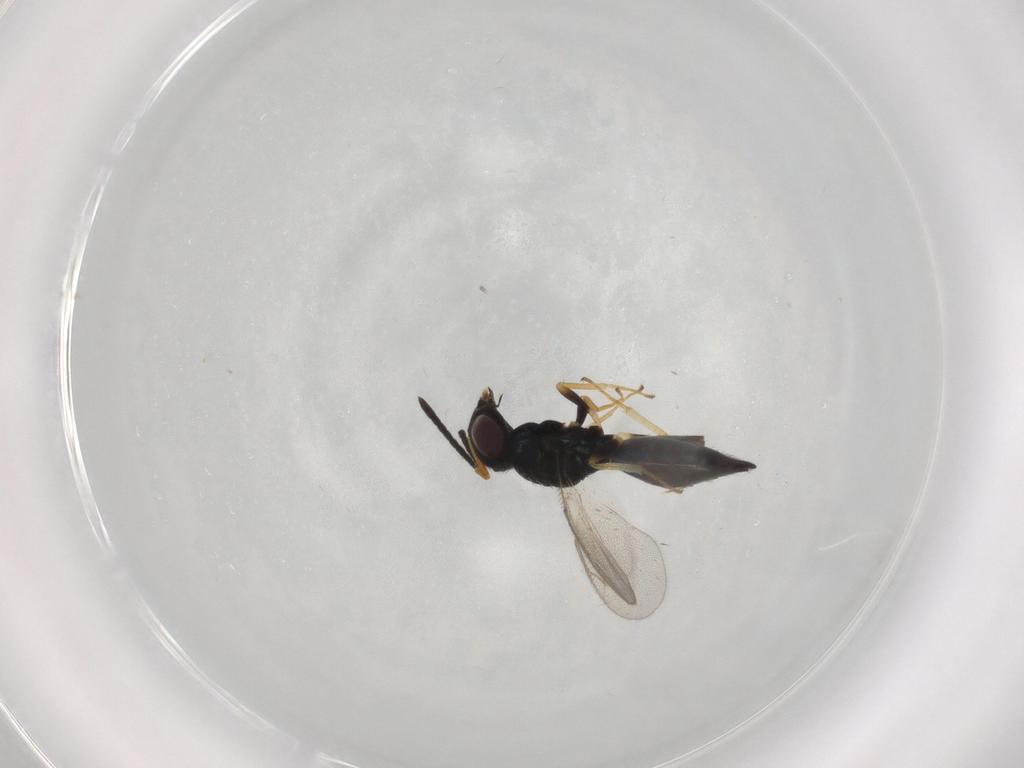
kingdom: Animalia
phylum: Arthropoda
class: Insecta
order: Hymenoptera
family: Pteromalidae
